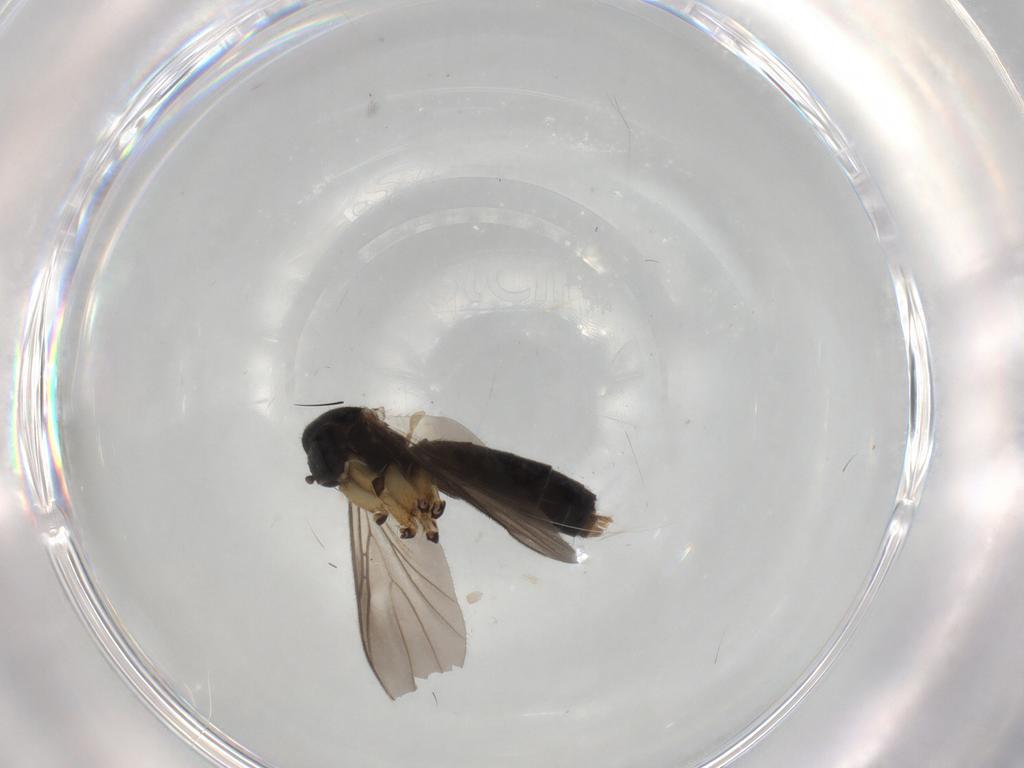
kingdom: Animalia
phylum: Arthropoda
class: Insecta
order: Diptera
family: Mycetophilidae
